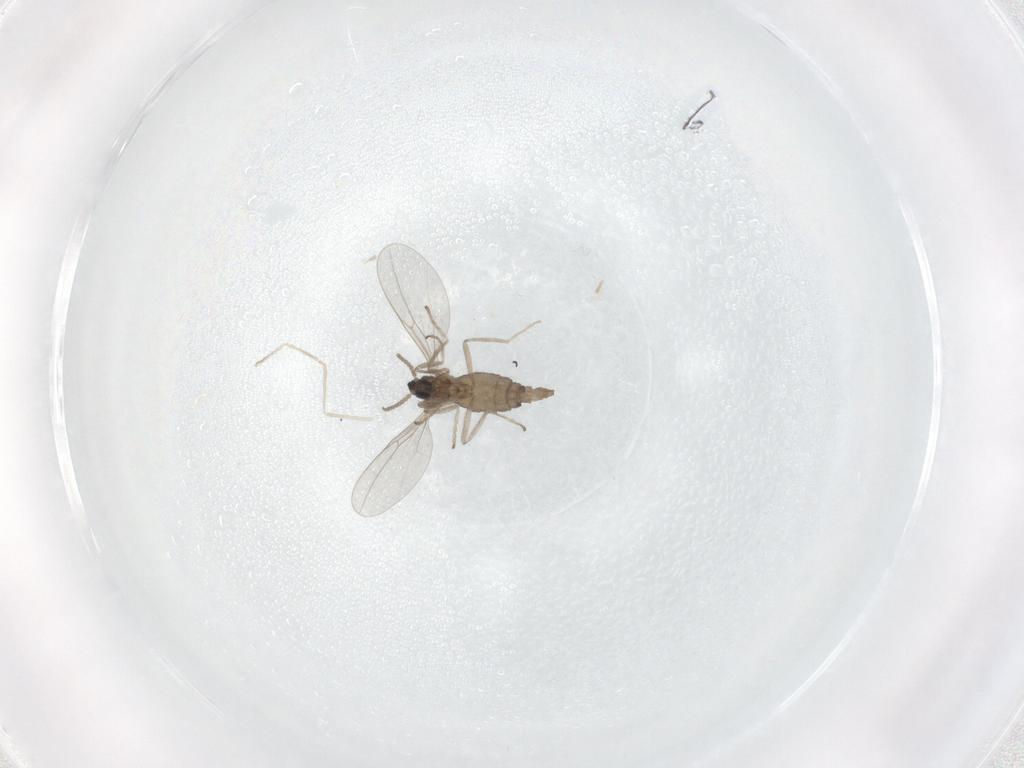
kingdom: Animalia
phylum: Arthropoda
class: Insecta
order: Diptera
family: Cecidomyiidae
